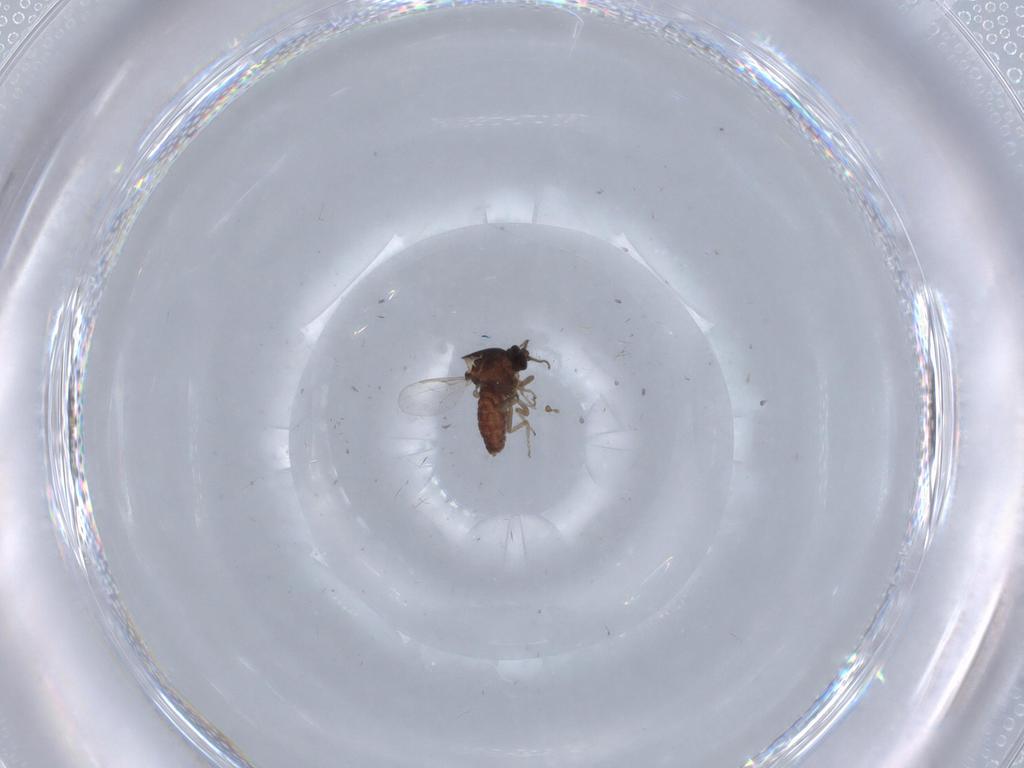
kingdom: Animalia
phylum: Arthropoda
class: Insecta
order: Diptera
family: Ceratopogonidae
